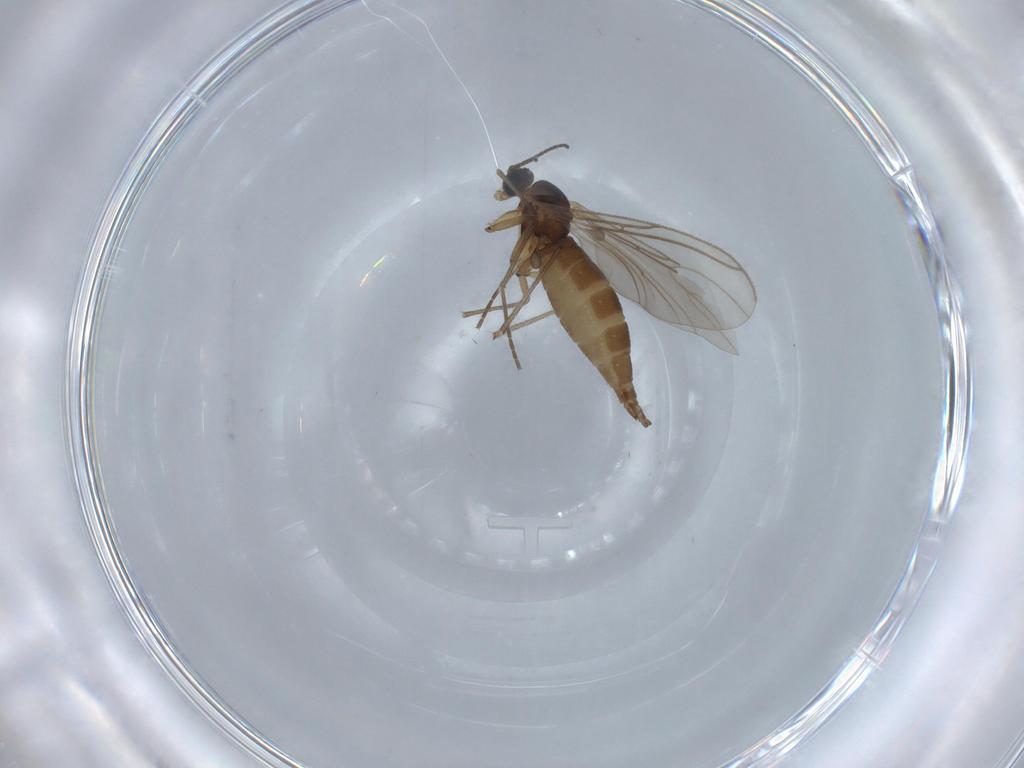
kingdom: Animalia
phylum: Arthropoda
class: Insecta
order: Diptera
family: Sciaridae
